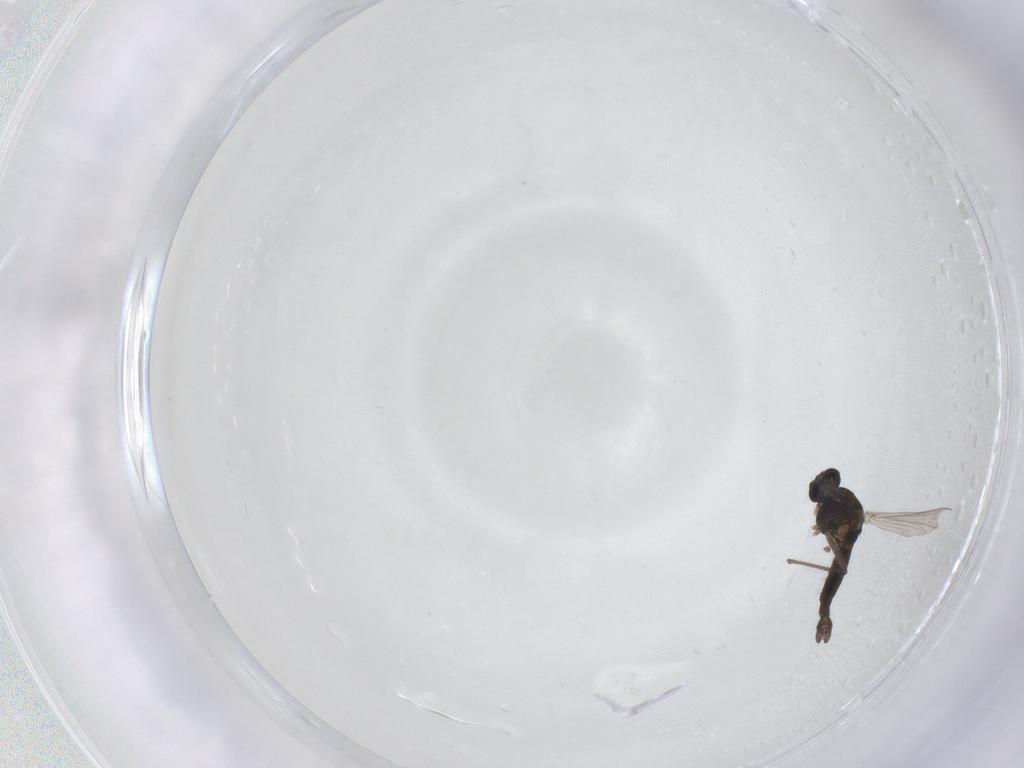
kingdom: Animalia
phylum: Arthropoda
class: Insecta
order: Diptera
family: Chironomidae
